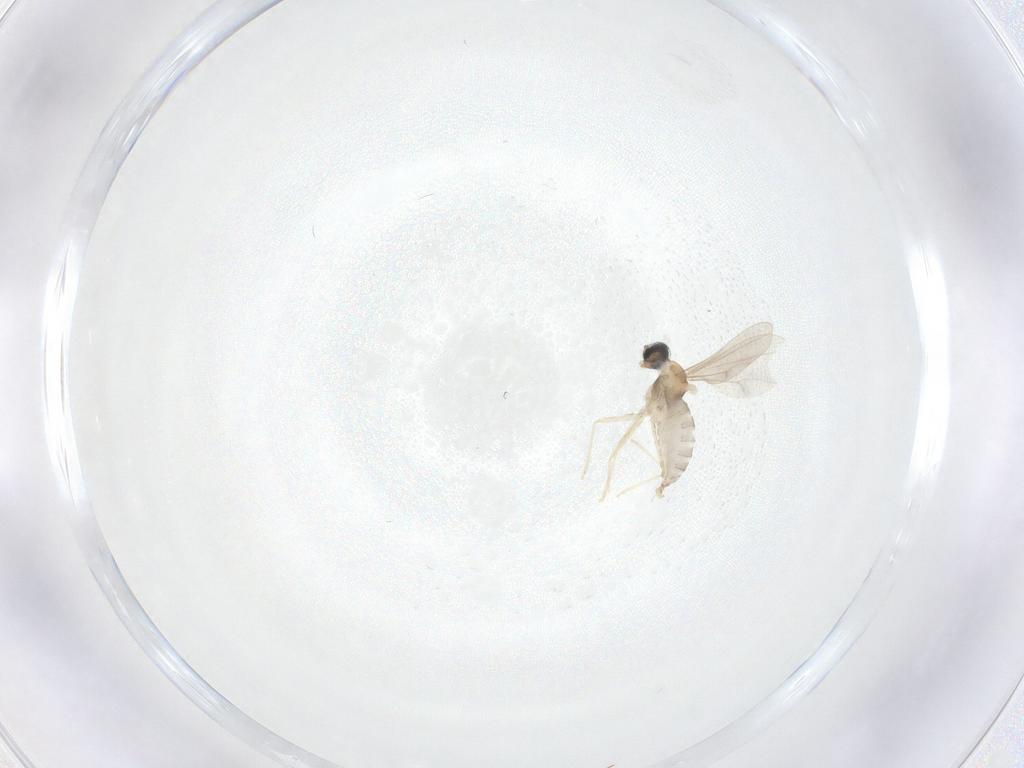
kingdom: Animalia
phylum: Arthropoda
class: Insecta
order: Diptera
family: Cecidomyiidae
